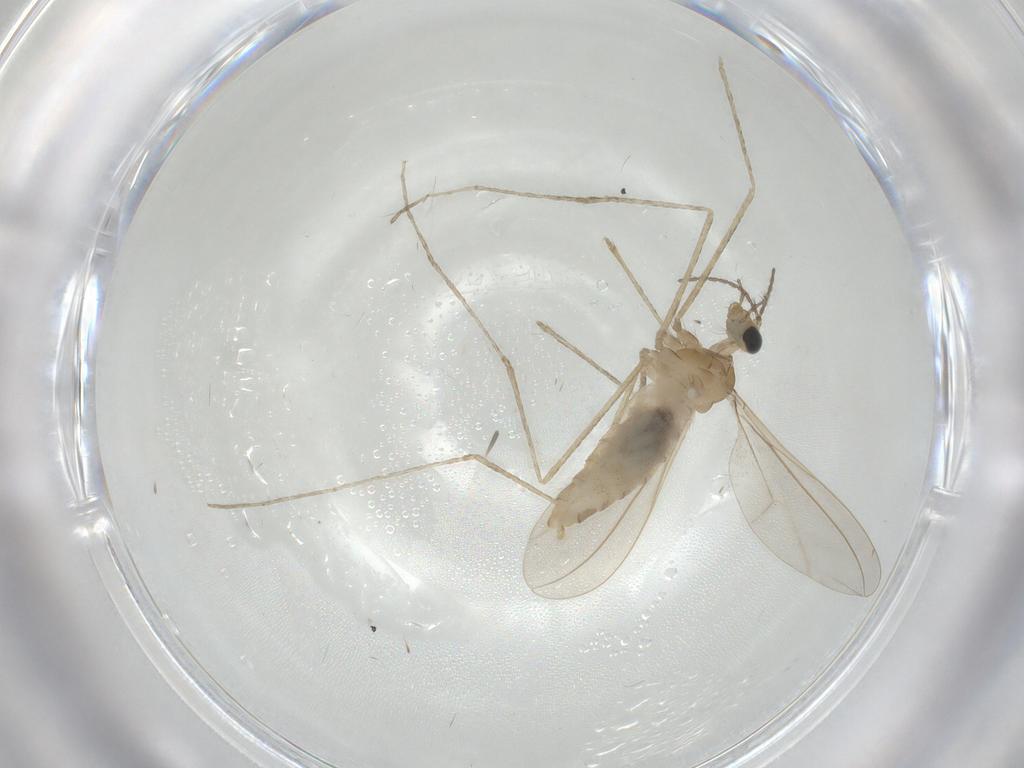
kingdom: Animalia
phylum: Arthropoda
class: Insecta
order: Diptera
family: Cecidomyiidae
